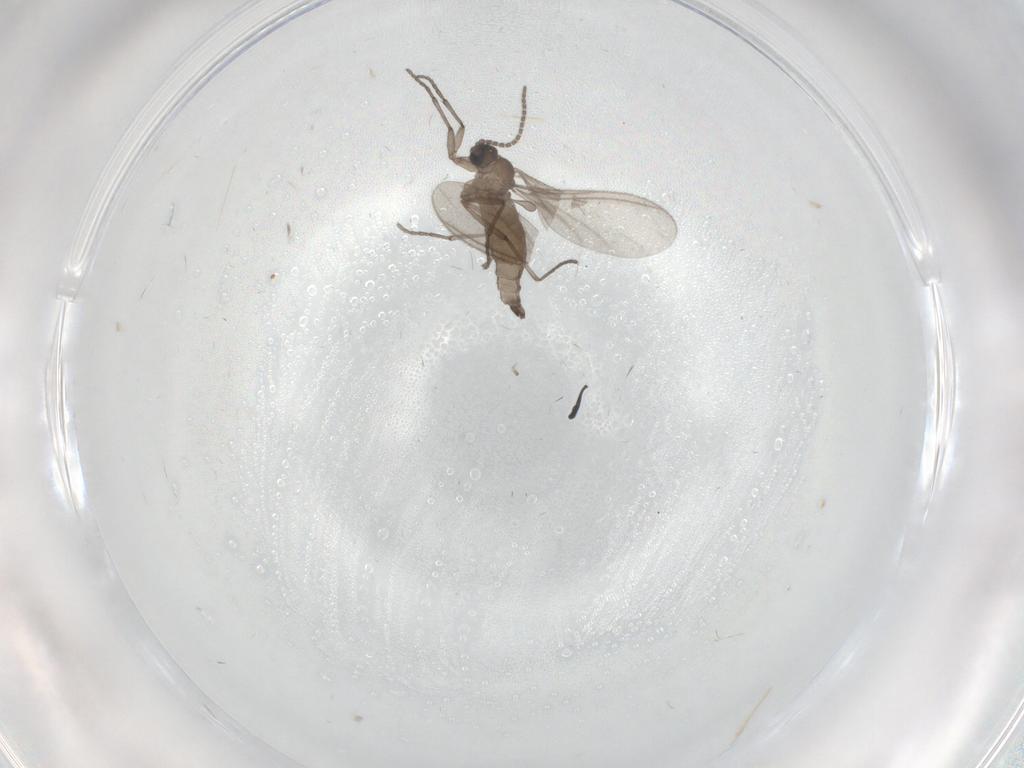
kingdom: Animalia
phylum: Arthropoda
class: Insecta
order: Diptera
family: Sciaridae
